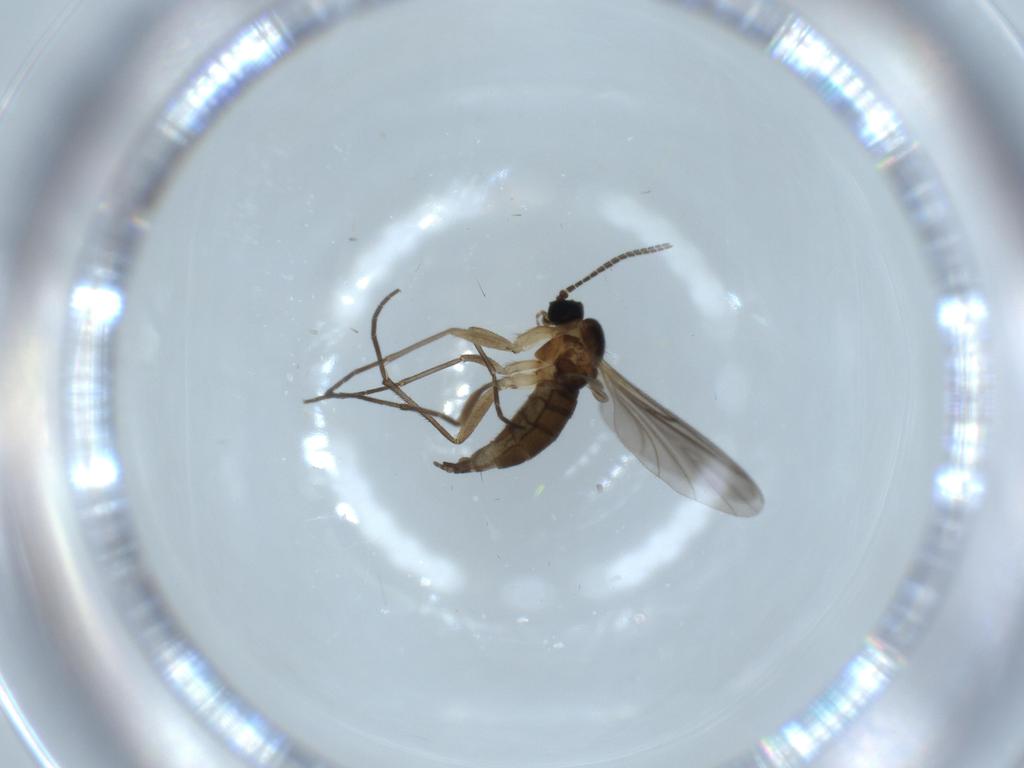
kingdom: Animalia
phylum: Arthropoda
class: Insecta
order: Diptera
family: Sciaridae
